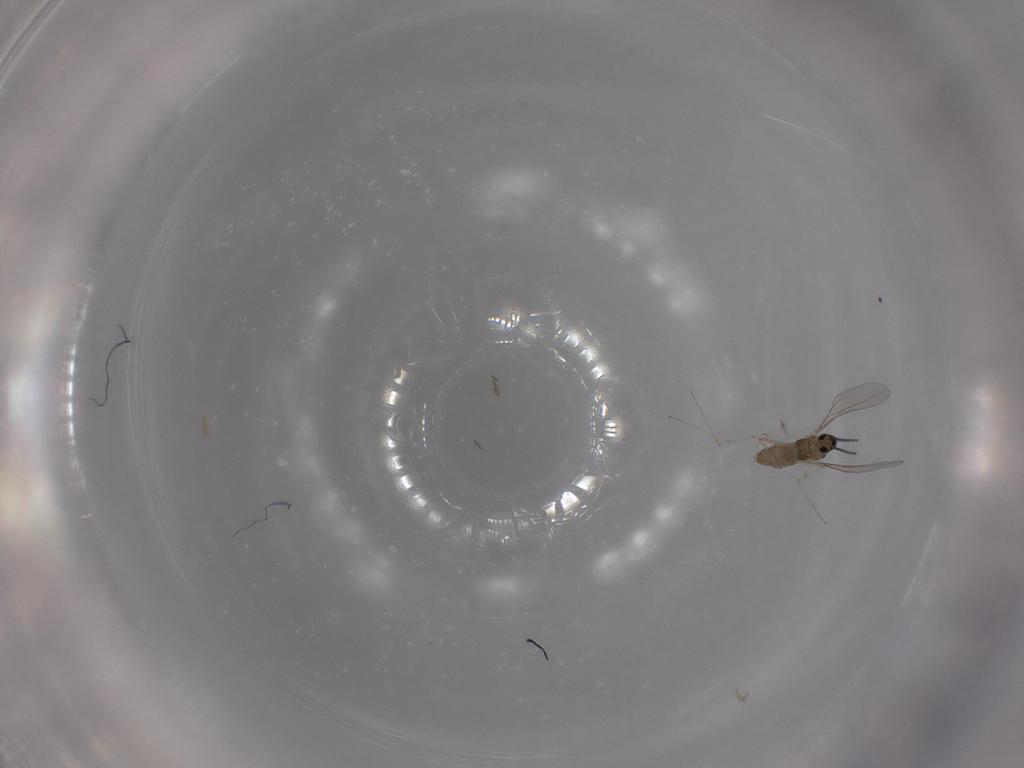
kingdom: Animalia
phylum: Arthropoda
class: Insecta
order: Diptera
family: Cecidomyiidae
